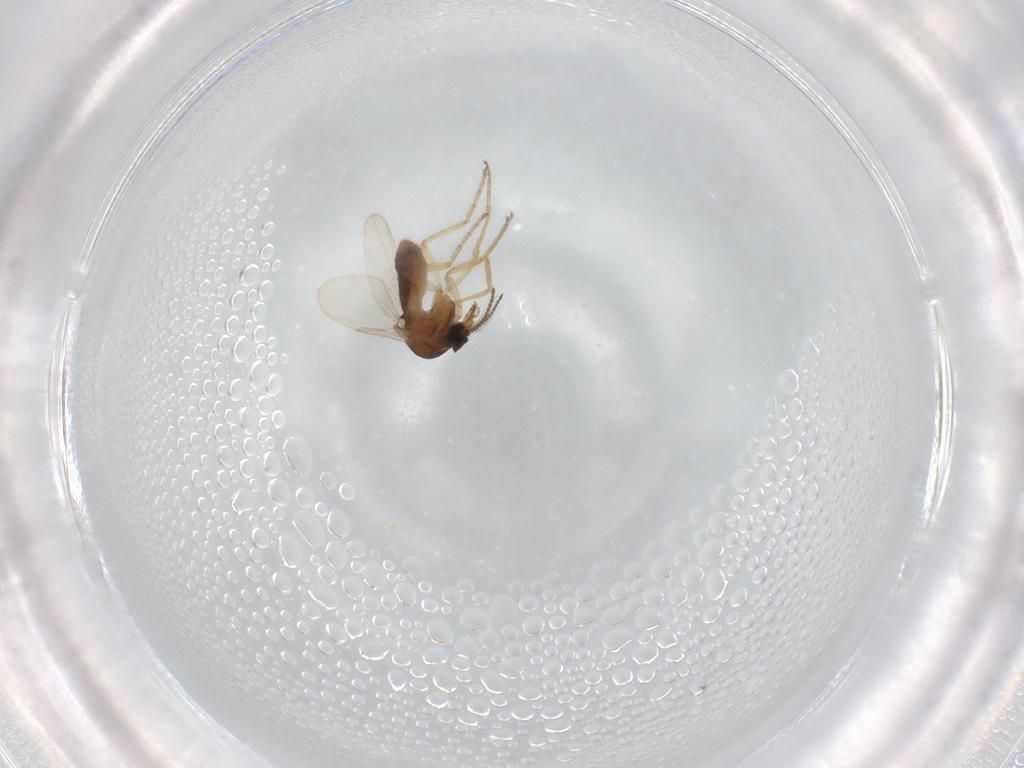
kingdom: Animalia
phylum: Arthropoda
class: Insecta
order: Diptera
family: Ceratopogonidae
